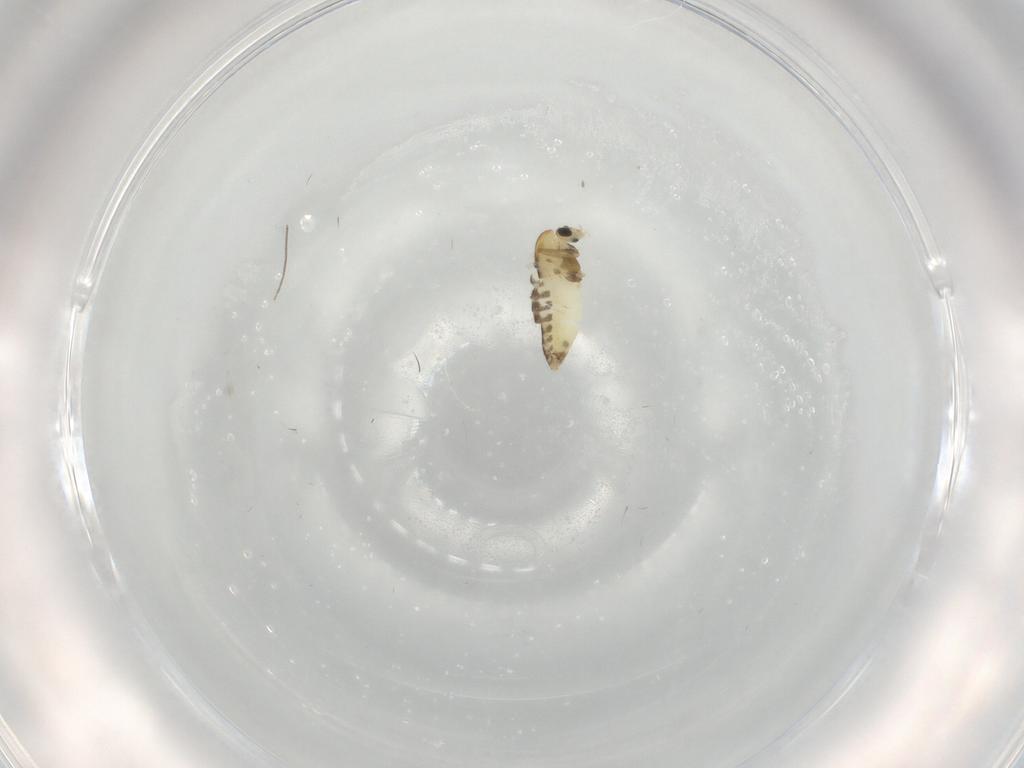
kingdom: Animalia
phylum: Arthropoda
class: Insecta
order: Diptera
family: Chironomidae
